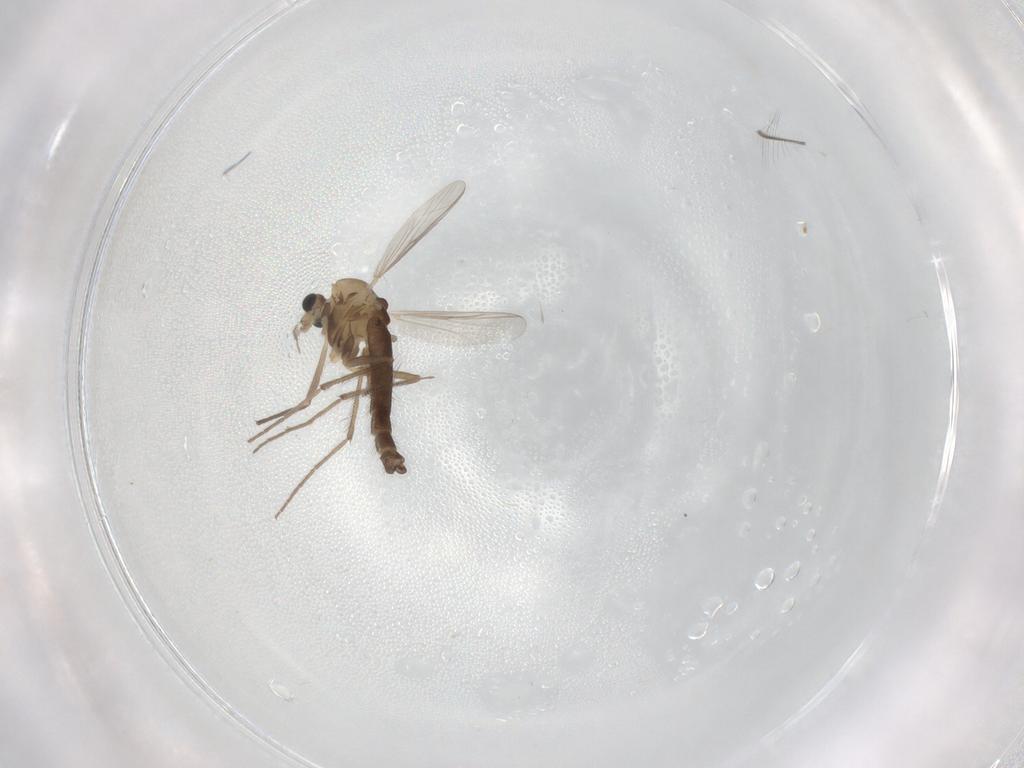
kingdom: Animalia
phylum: Arthropoda
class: Insecta
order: Diptera
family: Chironomidae
